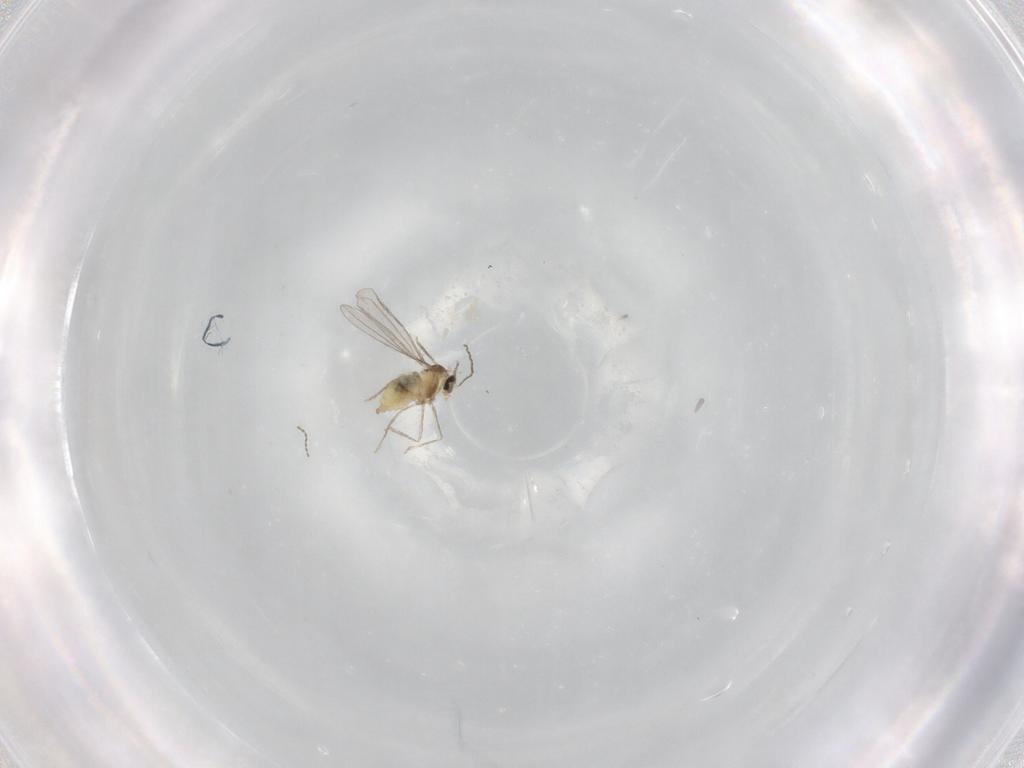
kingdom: Animalia
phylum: Arthropoda
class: Insecta
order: Diptera
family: Cecidomyiidae
